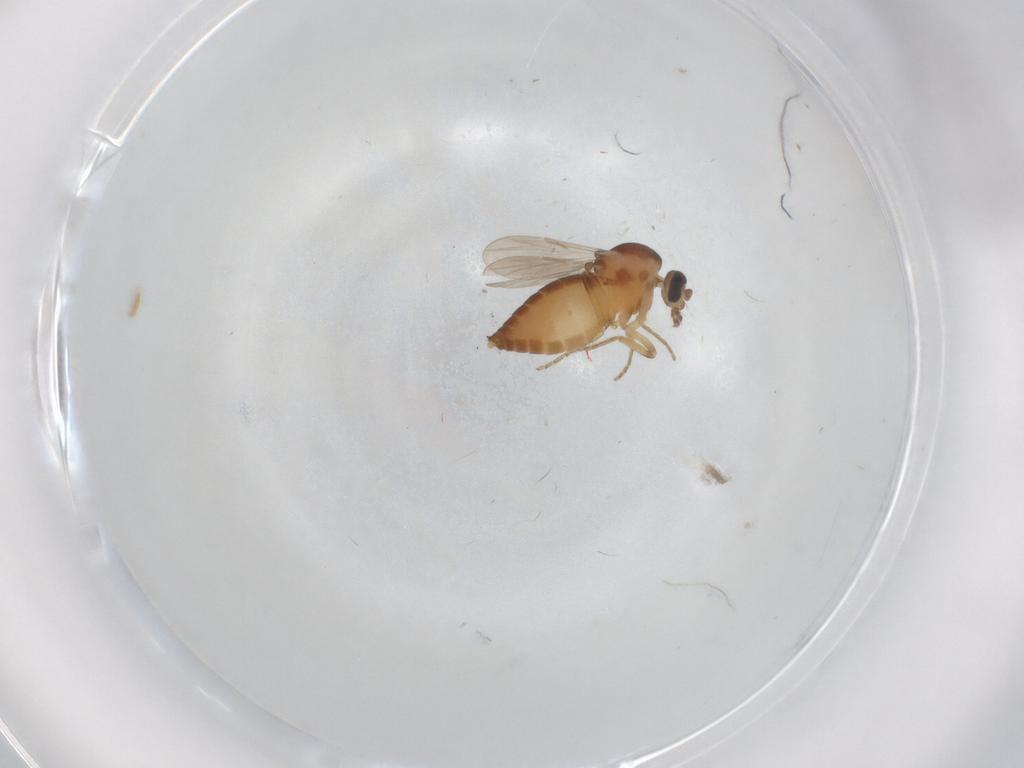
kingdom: Animalia
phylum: Arthropoda
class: Insecta
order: Diptera
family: Ceratopogonidae
